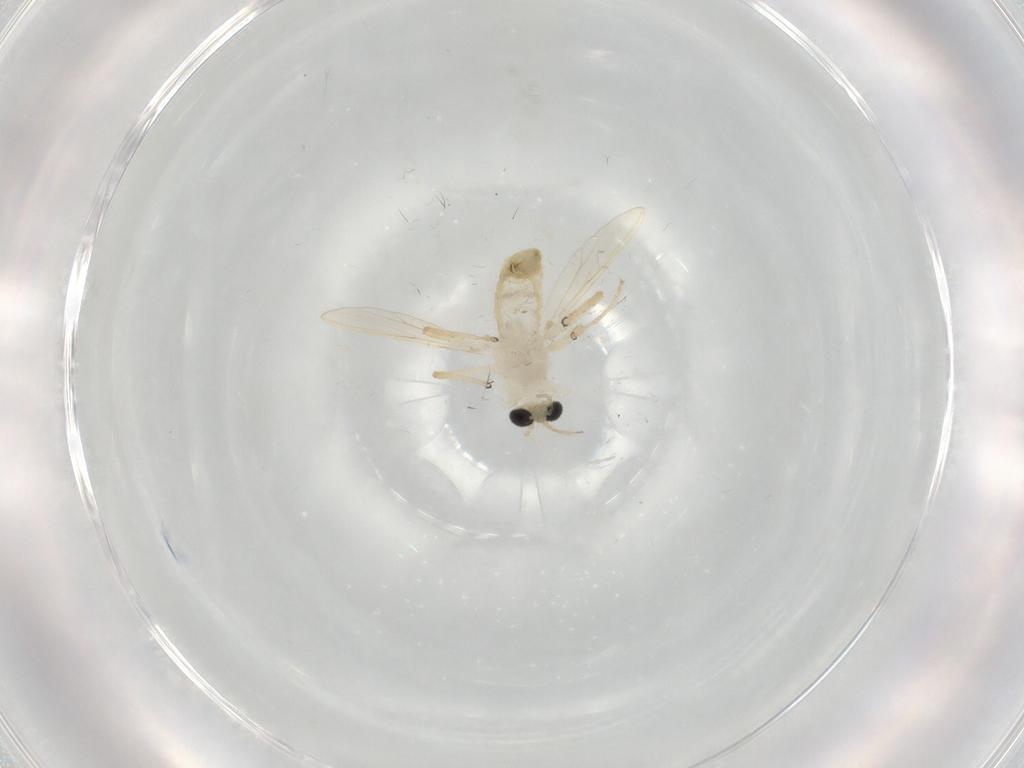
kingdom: Animalia
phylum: Arthropoda
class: Insecta
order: Diptera
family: Chironomidae
